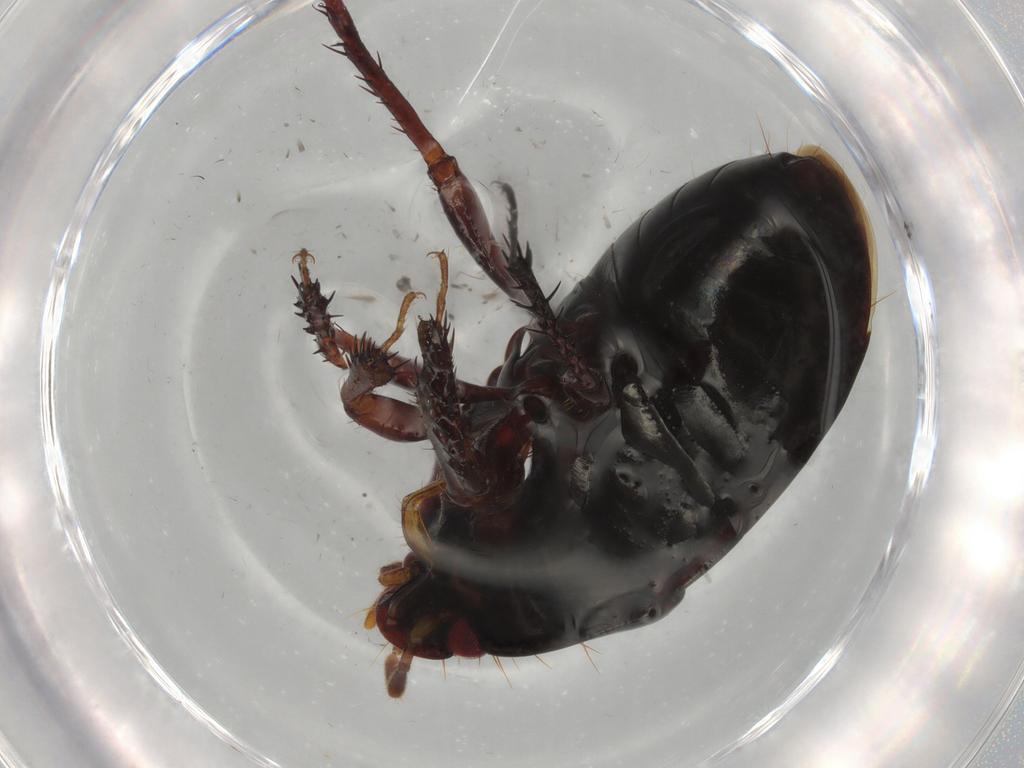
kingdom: Animalia
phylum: Arthropoda
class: Insecta
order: Hemiptera
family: Cydnidae
